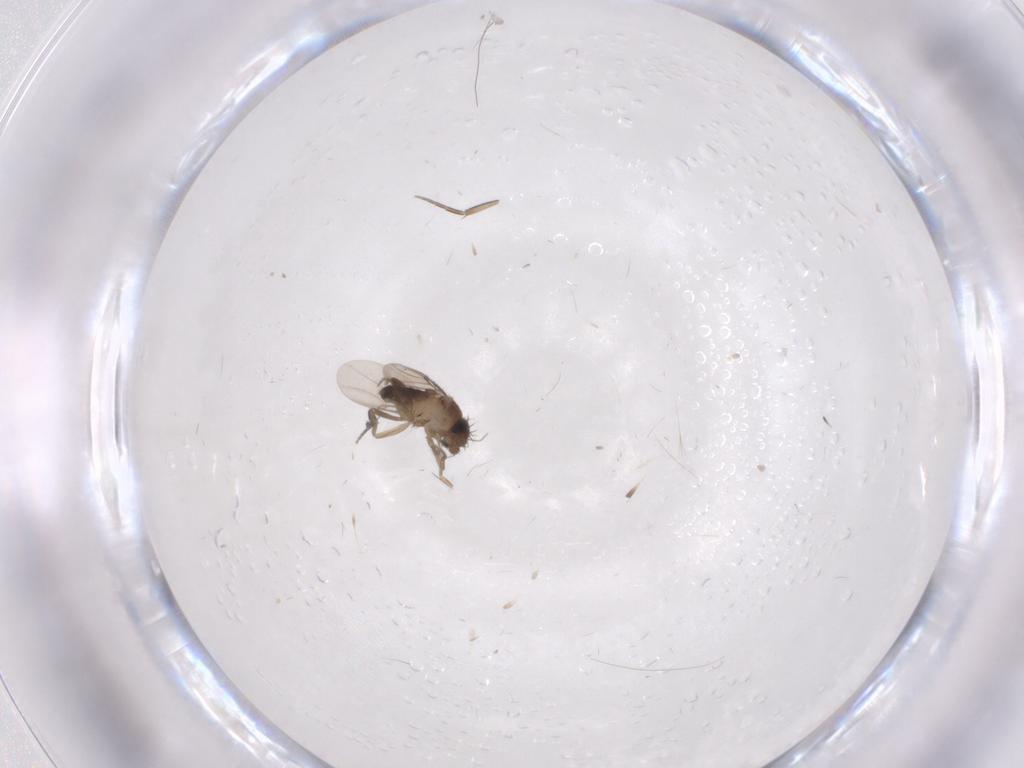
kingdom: Animalia
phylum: Arthropoda
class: Insecta
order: Diptera
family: Phoridae
